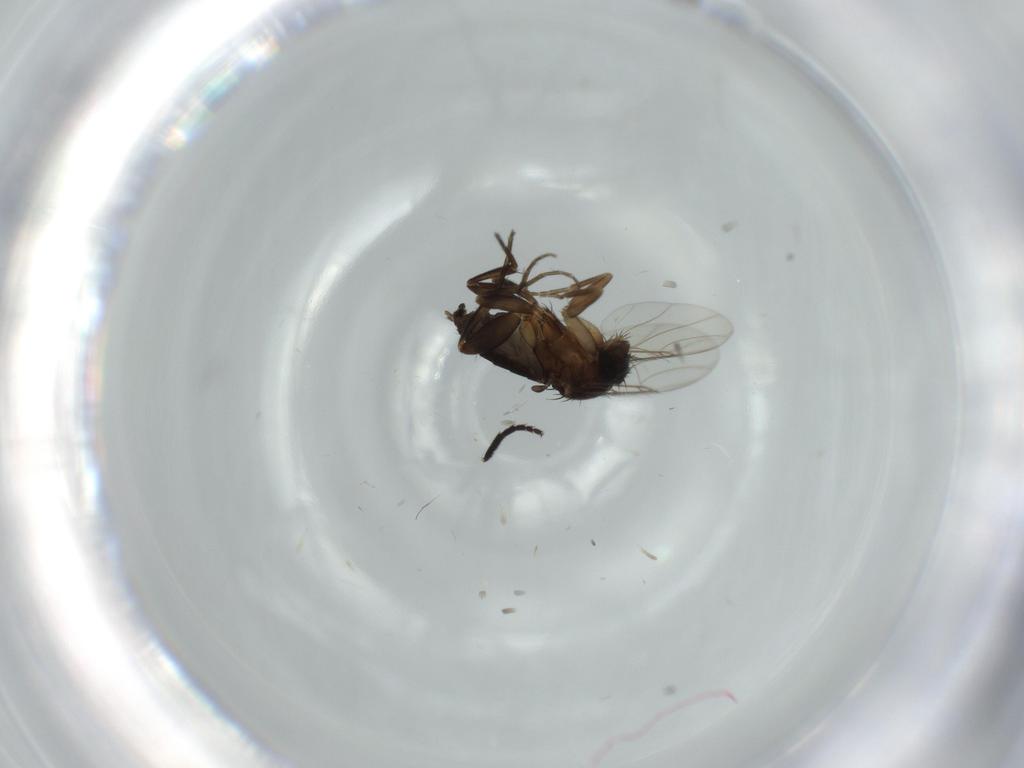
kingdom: Animalia
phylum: Arthropoda
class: Insecta
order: Diptera
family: Phoridae
